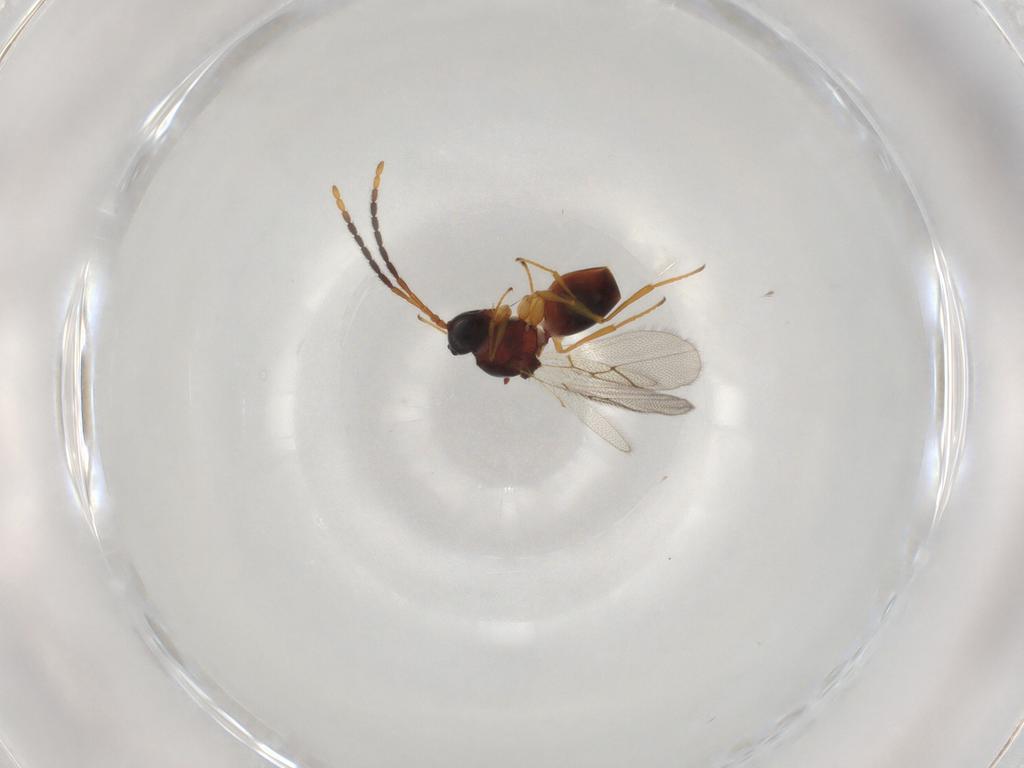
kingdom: Animalia
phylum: Arthropoda
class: Insecta
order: Hymenoptera
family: Figitidae
